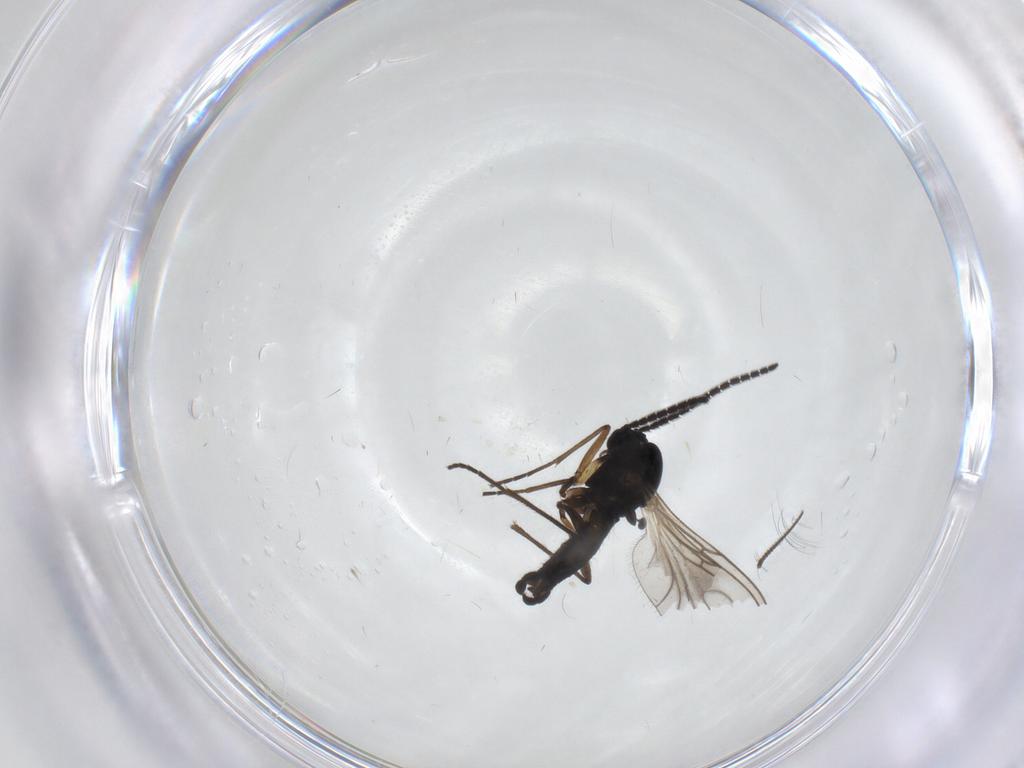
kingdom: Animalia
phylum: Arthropoda
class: Insecta
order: Diptera
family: Sciaridae
